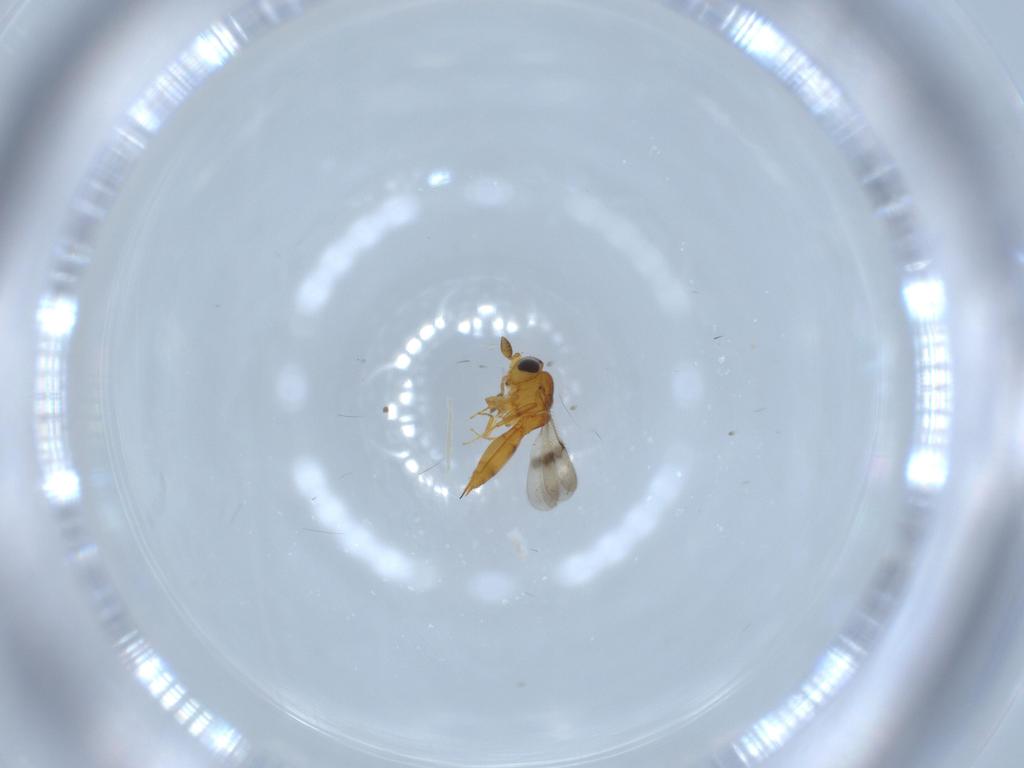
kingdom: Animalia
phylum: Arthropoda
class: Insecta
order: Hymenoptera
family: Scelionidae
